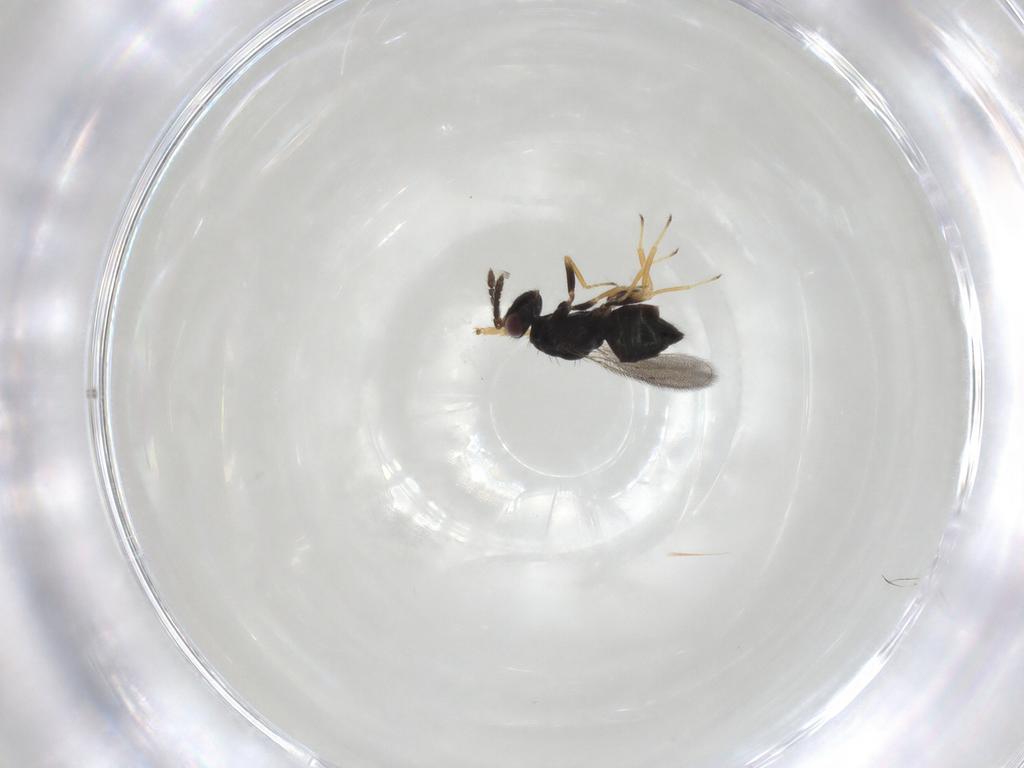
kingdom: Animalia
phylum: Arthropoda
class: Insecta
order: Hymenoptera
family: Eulophidae
